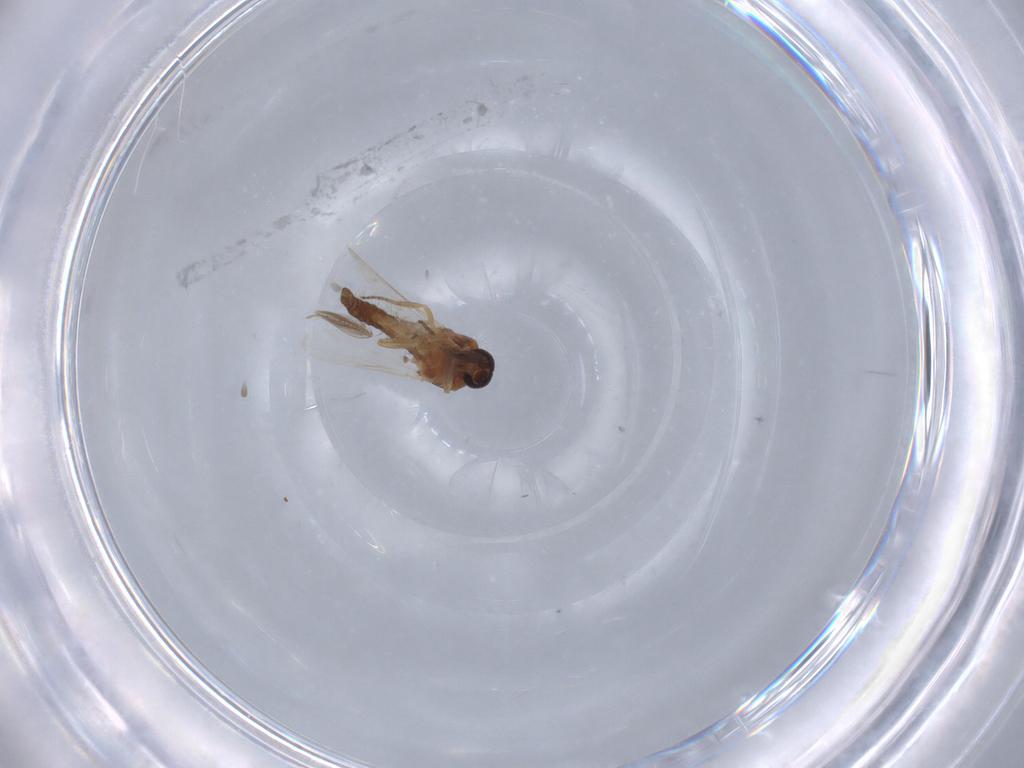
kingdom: Animalia
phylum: Arthropoda
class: Insecta
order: Diptera
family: Ceratopogonidae
